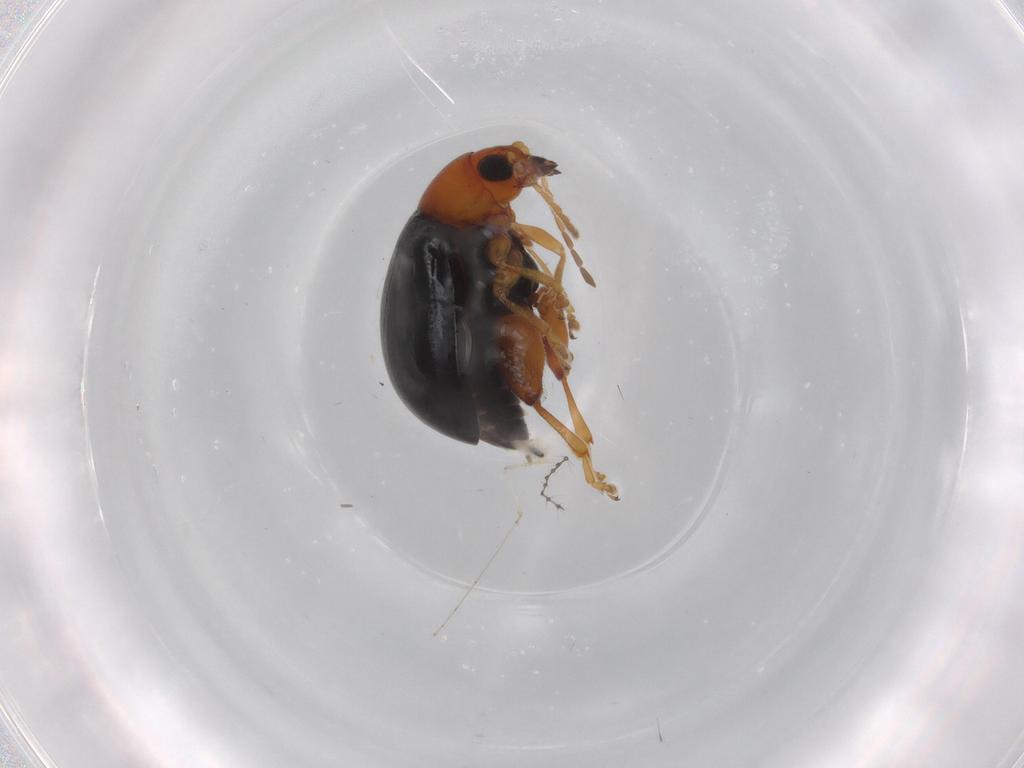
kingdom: Animalia
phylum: Arthropoda
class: Insecta
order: Coleoptera
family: Chrysomelidae
